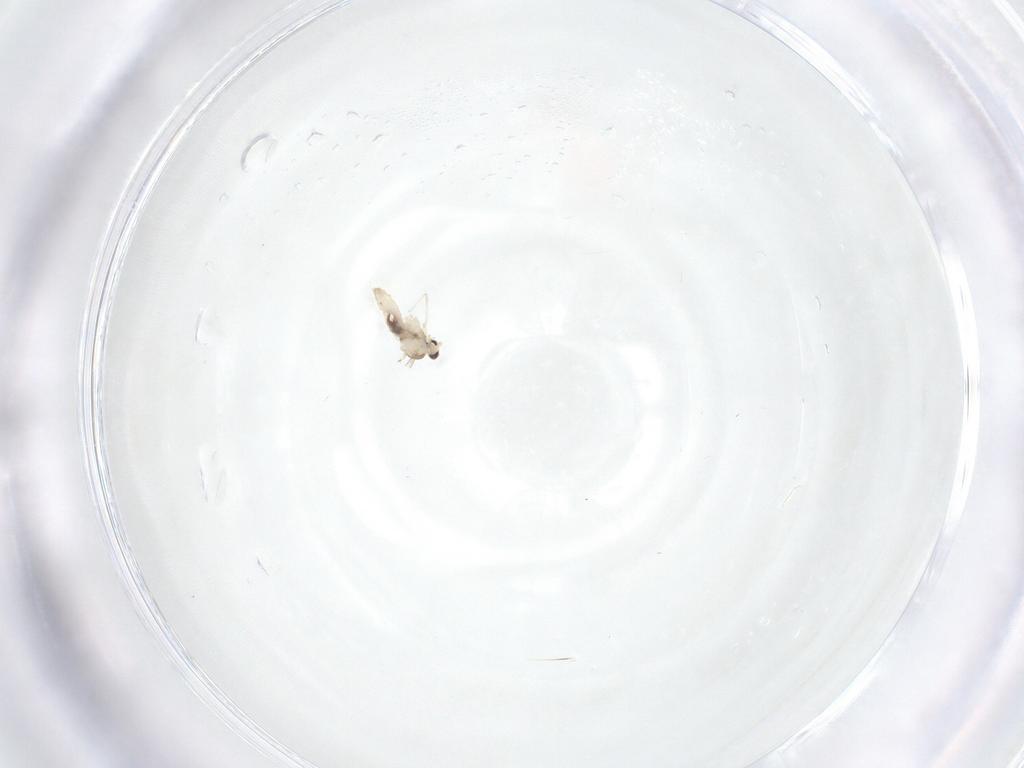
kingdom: Animalia
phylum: Arthropoda
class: Insecta
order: Diptera
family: Cecidomyiidae
